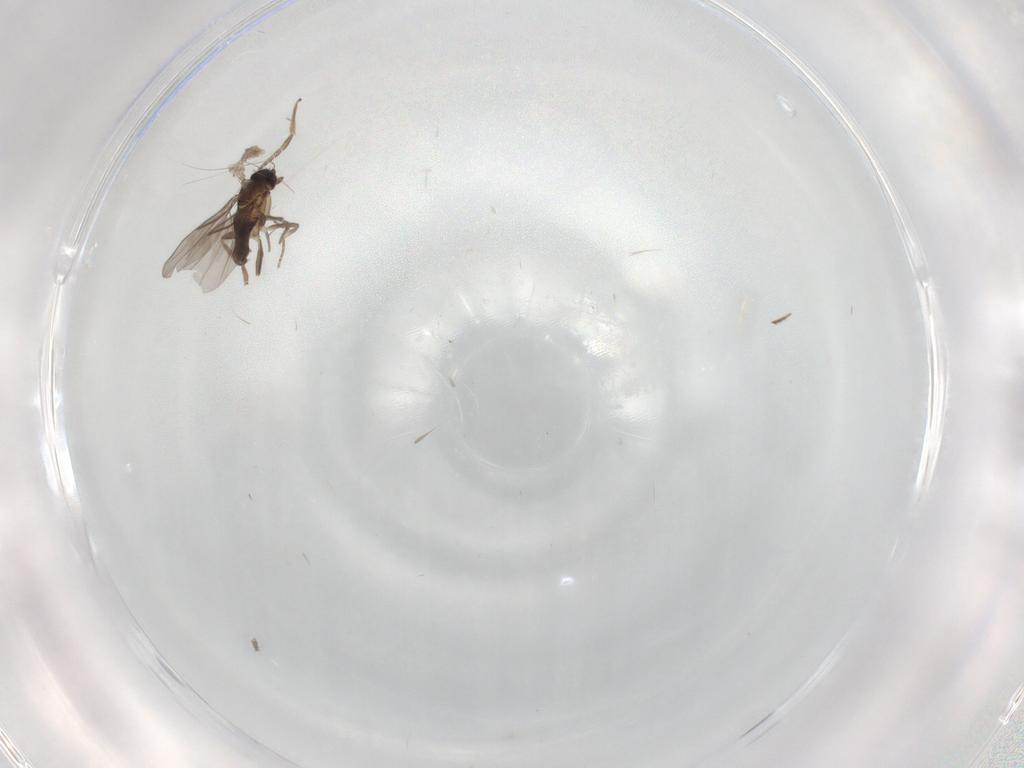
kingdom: Animalia
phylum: Arthropoda
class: Insecta
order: Diptera
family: Cecidomyiidae
